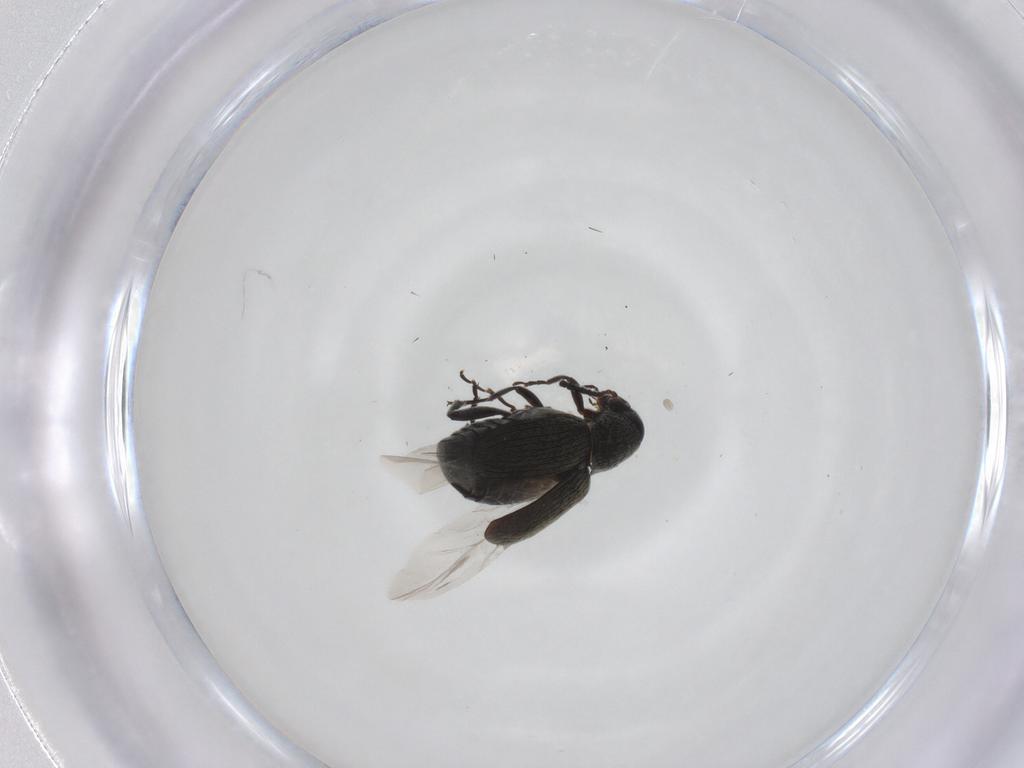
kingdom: Animalia
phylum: Arthropoda
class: Insecta
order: Coleoptera
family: Chrysomelidae
